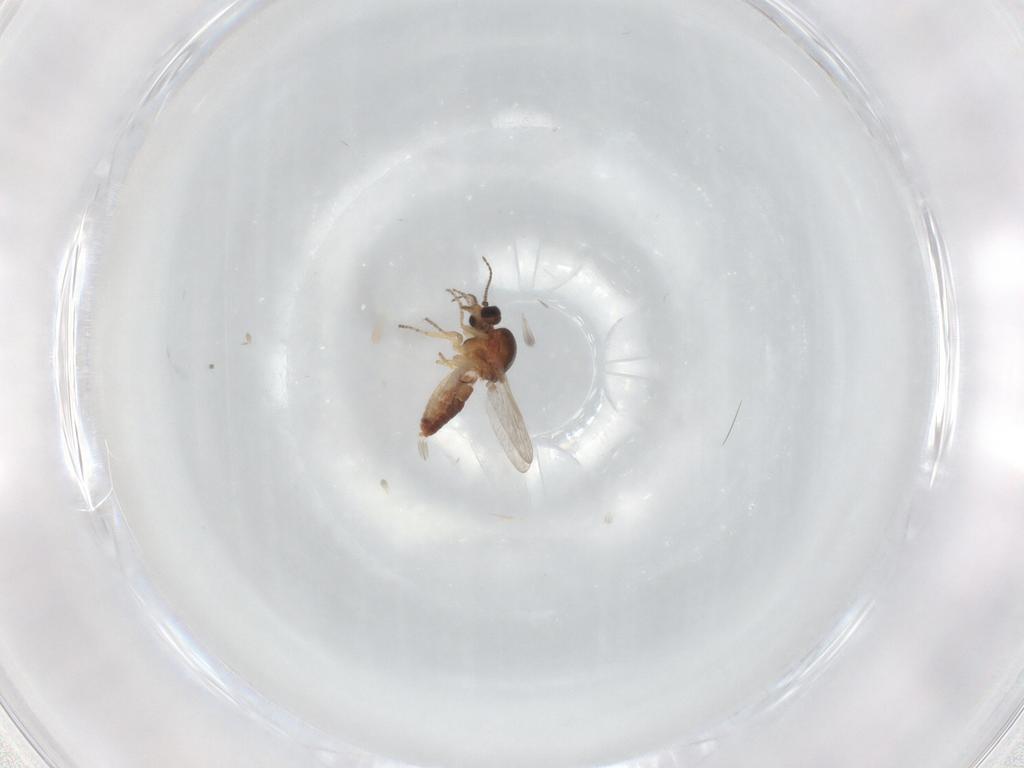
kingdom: Animalia
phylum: Arthropoda
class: Insecta
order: Diptera
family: Ceratopogonidae
